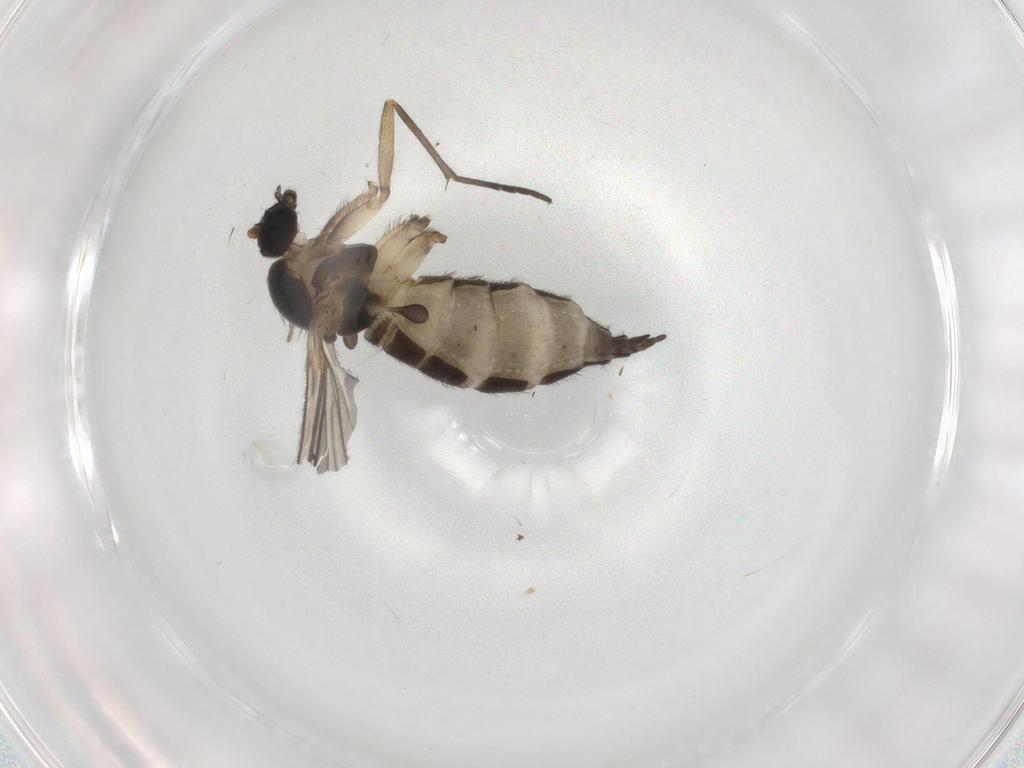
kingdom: Animalia
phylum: Arthropoda
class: Insecta
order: Diptera
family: Sciaridae
